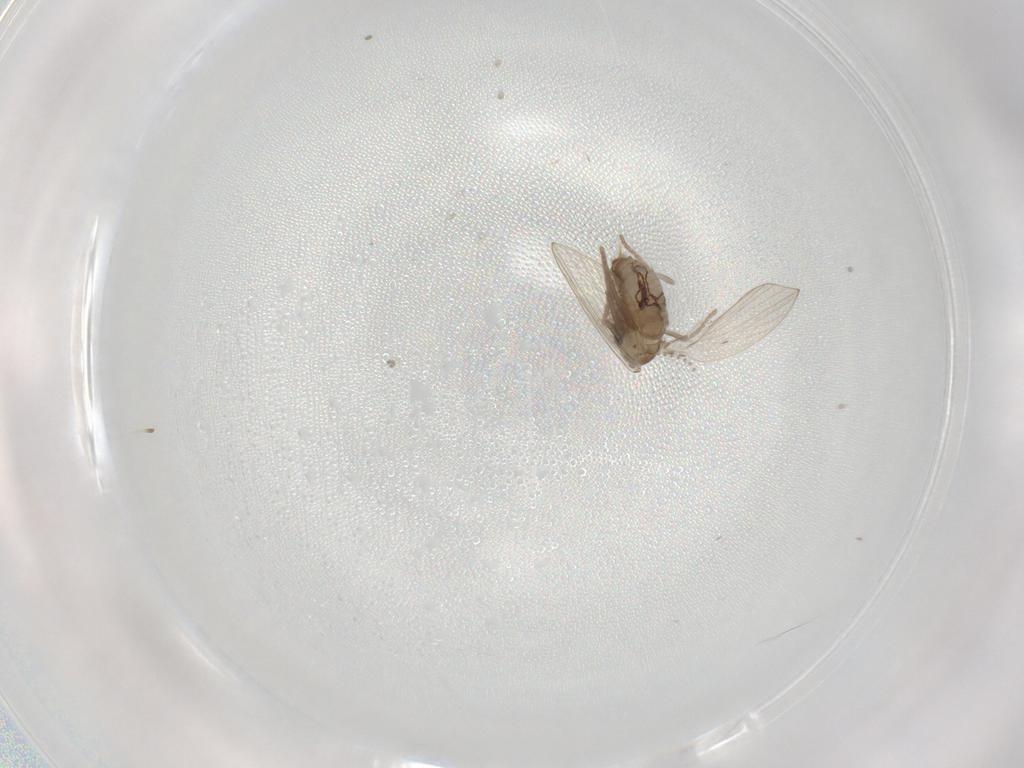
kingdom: Animalia
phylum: Arthropoda
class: Insecta
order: Diptera
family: Psychodidae
